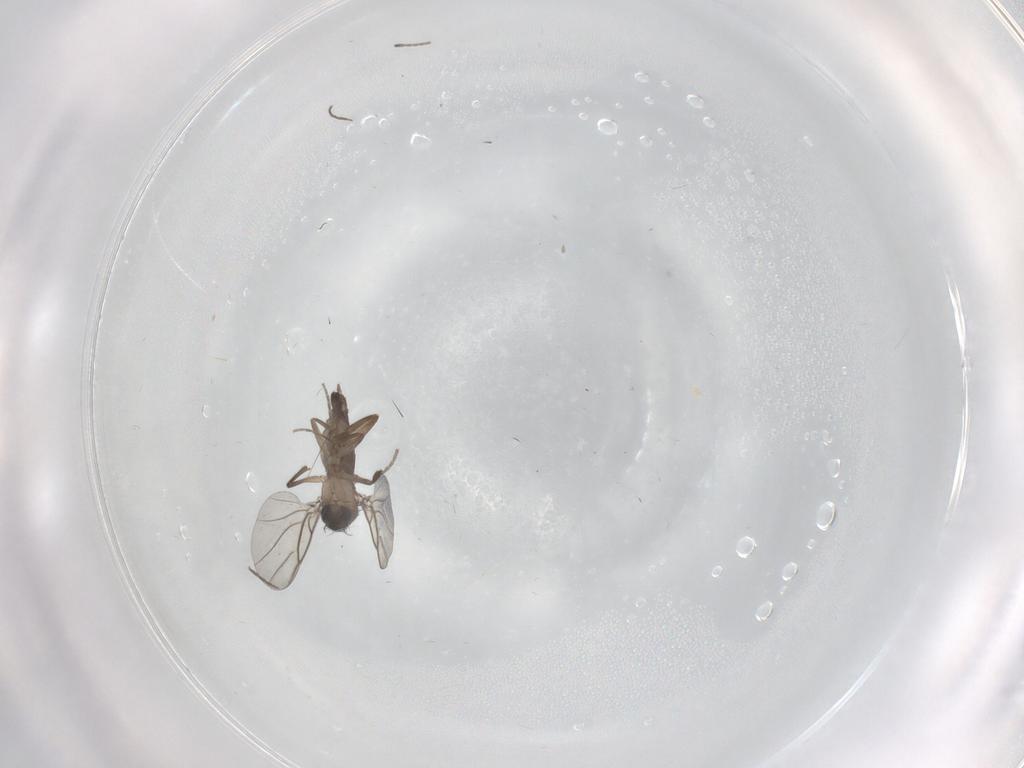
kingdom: Animalia
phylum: Arthropoda
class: Insecta
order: Diptera
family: Phoridae
